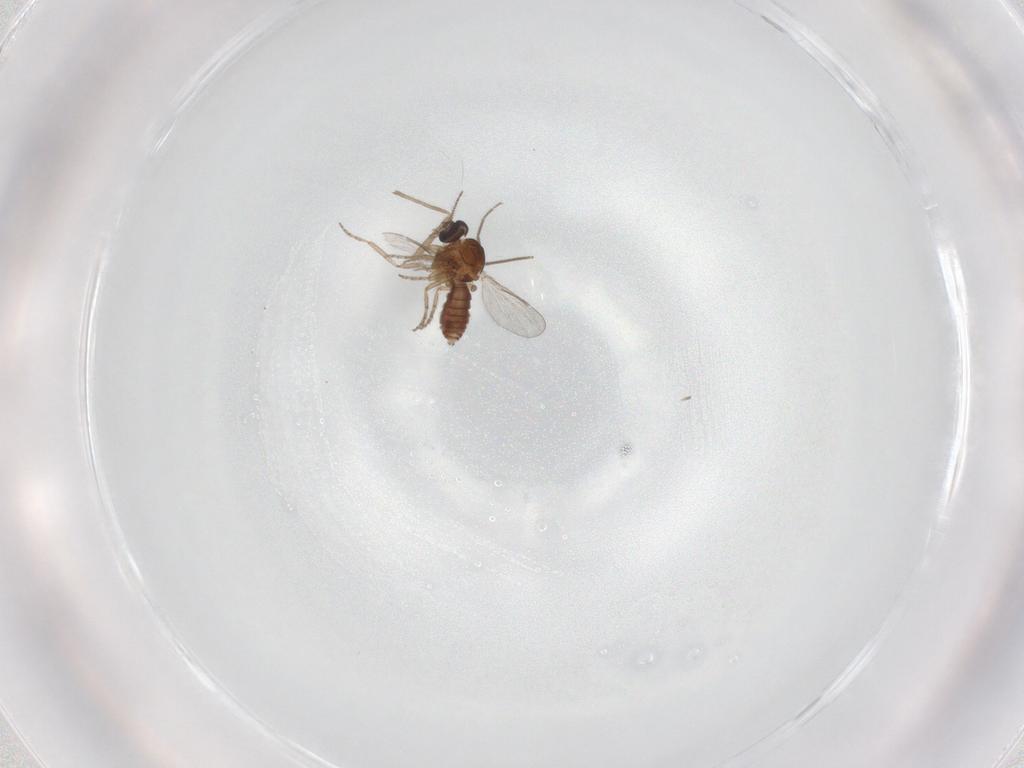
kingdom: Animalia
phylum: Arthropoda
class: Insecta
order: Diptera
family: Chironomidae
